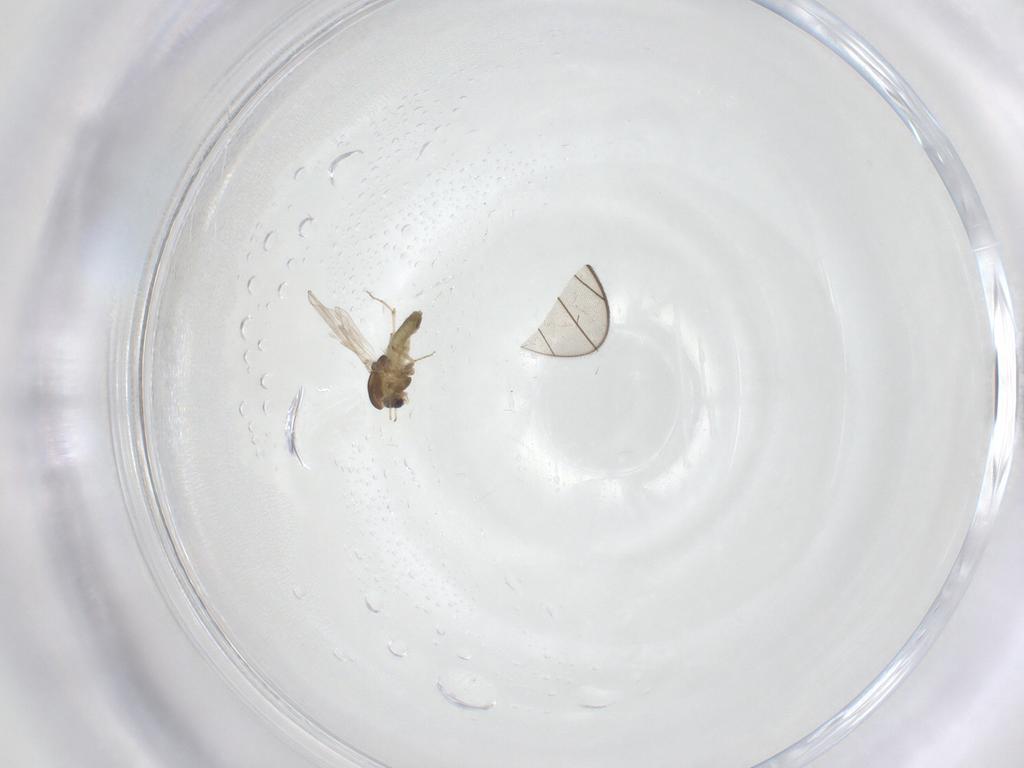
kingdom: Animalia
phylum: Arthropoda
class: Insecta
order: Diptera
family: Chironomidae
